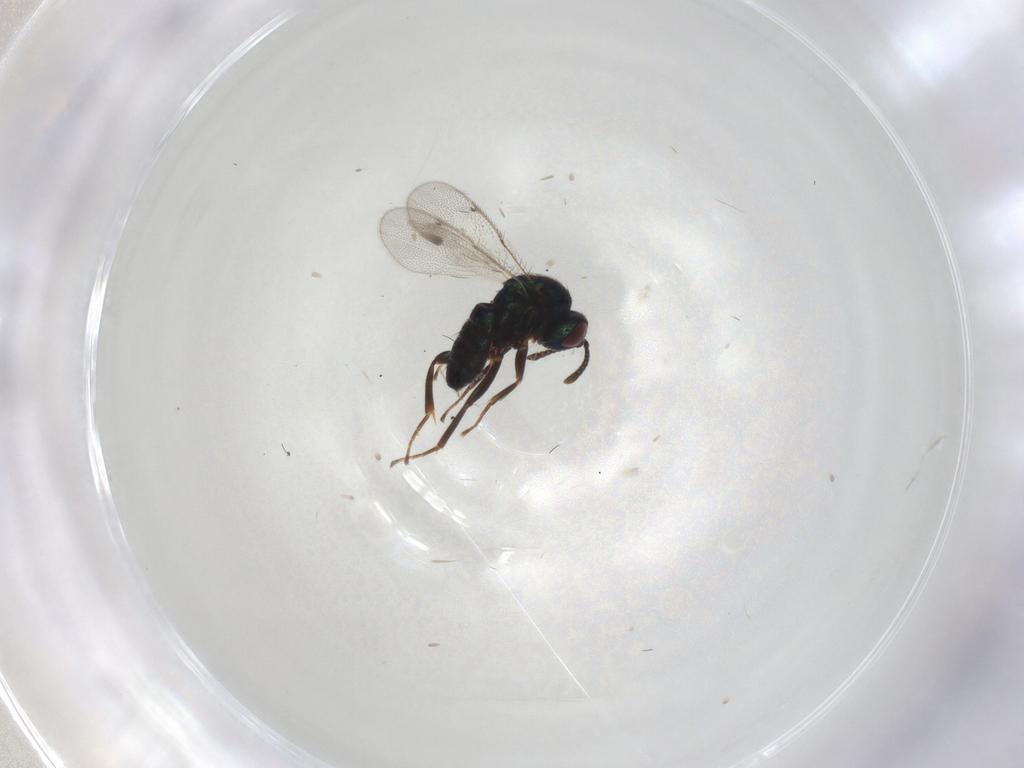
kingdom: Animalia
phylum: Arthropoda
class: Insecta
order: Hymenoptera
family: Ormyridae
